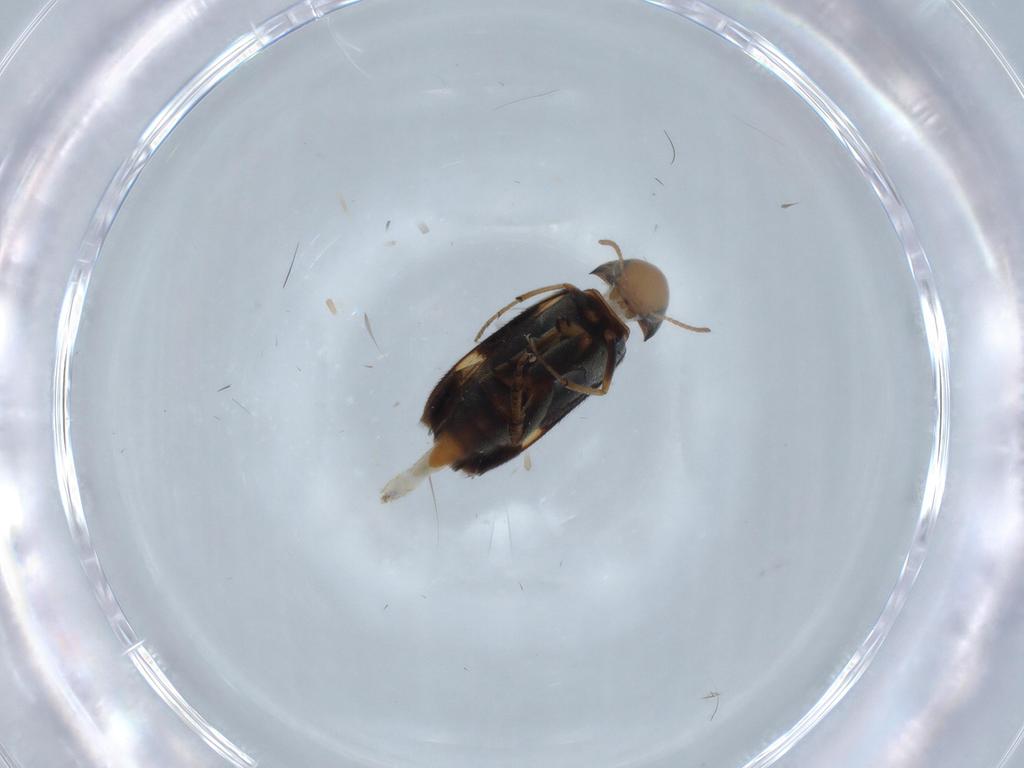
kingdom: Animalia
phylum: Arthropoda
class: Insecta
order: Coleoptera
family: Mordellidae
